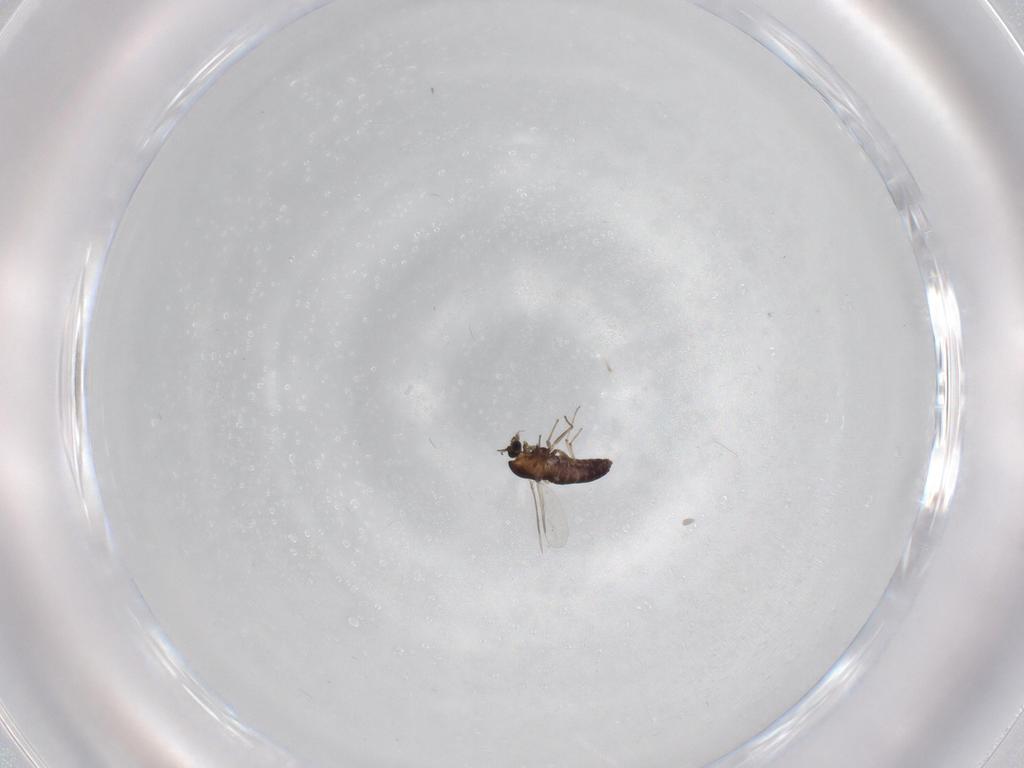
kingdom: Animalia
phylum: Arthropoda
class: Insecta
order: Diptera
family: Chironomidae
